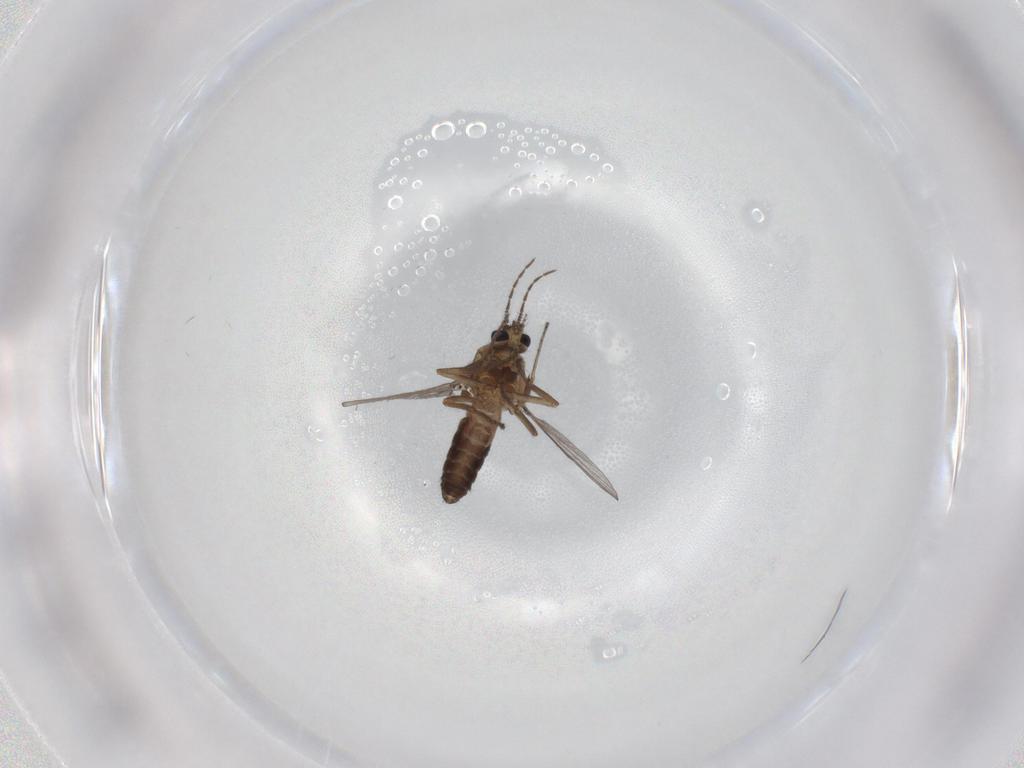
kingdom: Animalia
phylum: Arthropoda
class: Insecta
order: Diptera
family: Ceratopogonidae
